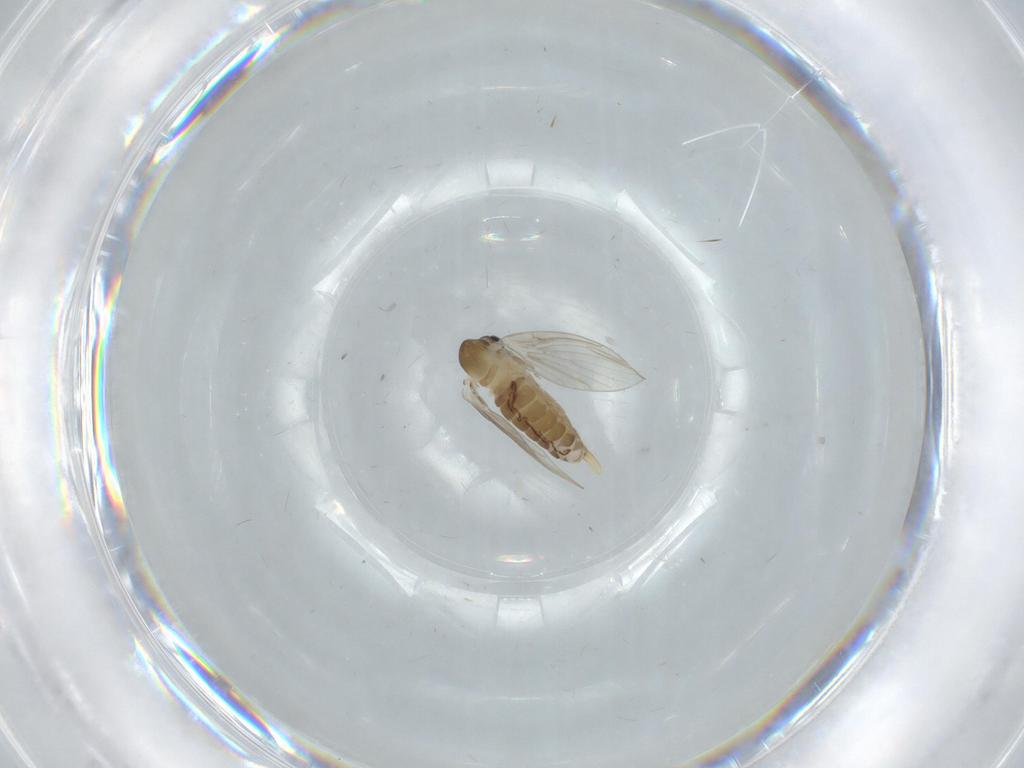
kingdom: Animalia
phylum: Arthropoda
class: Insecta
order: Diptera
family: Psychodidae
